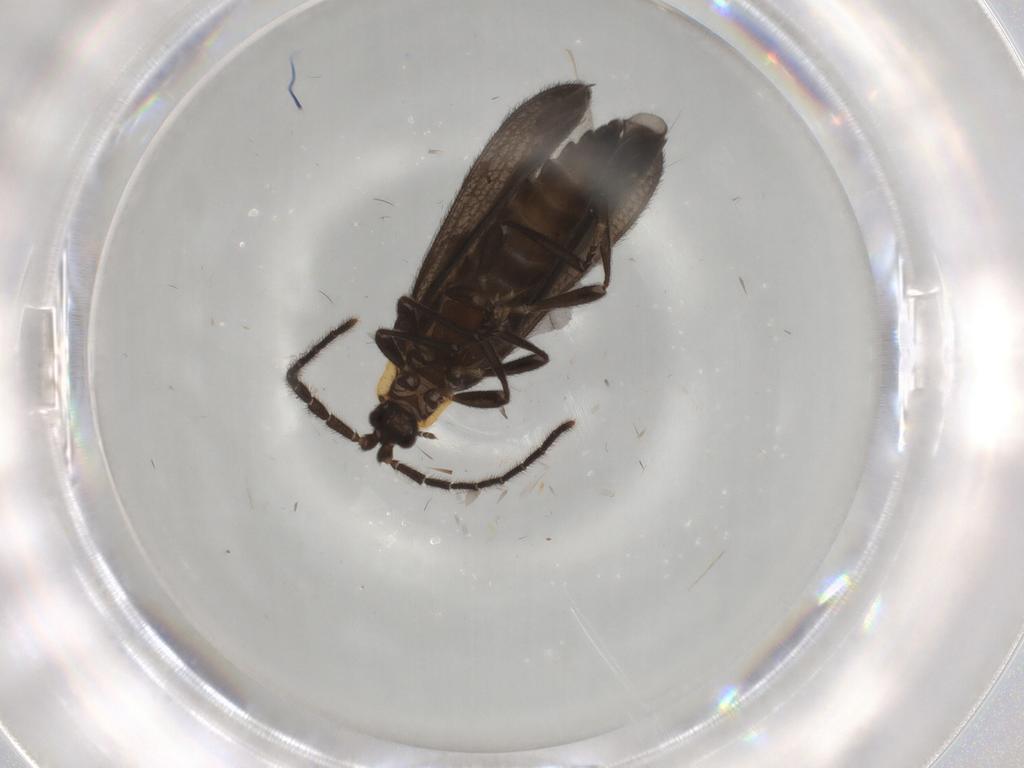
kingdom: Animalia
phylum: Arthropoda
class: Insecta
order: Coleoptera
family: Lycidae
